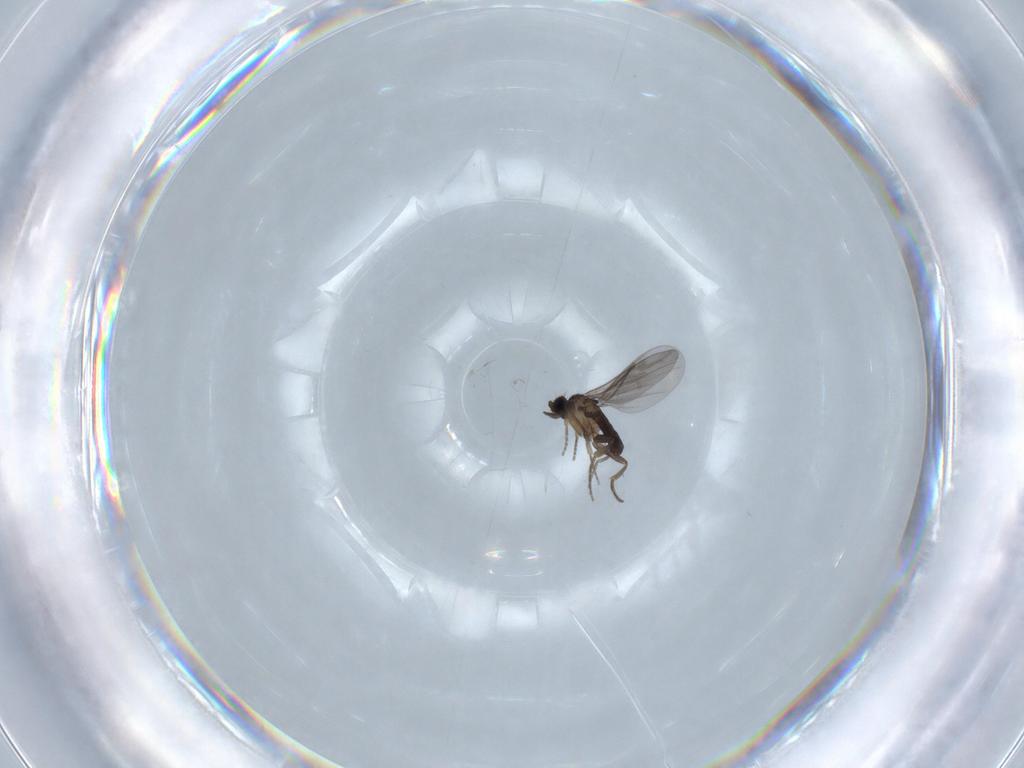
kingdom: Animalia
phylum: Arthropoda
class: Insecta
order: Diptera
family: Phoridae
